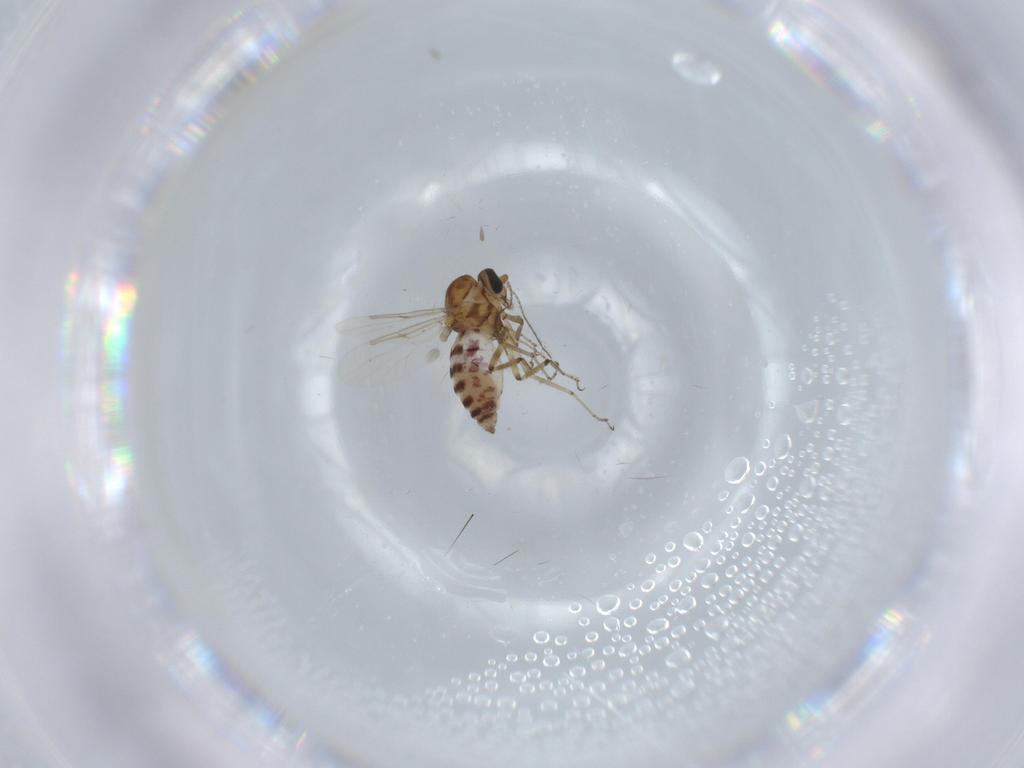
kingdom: Animalia
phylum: Arthropoda
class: Insecta
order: Diptera
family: Ceratopogonidae
